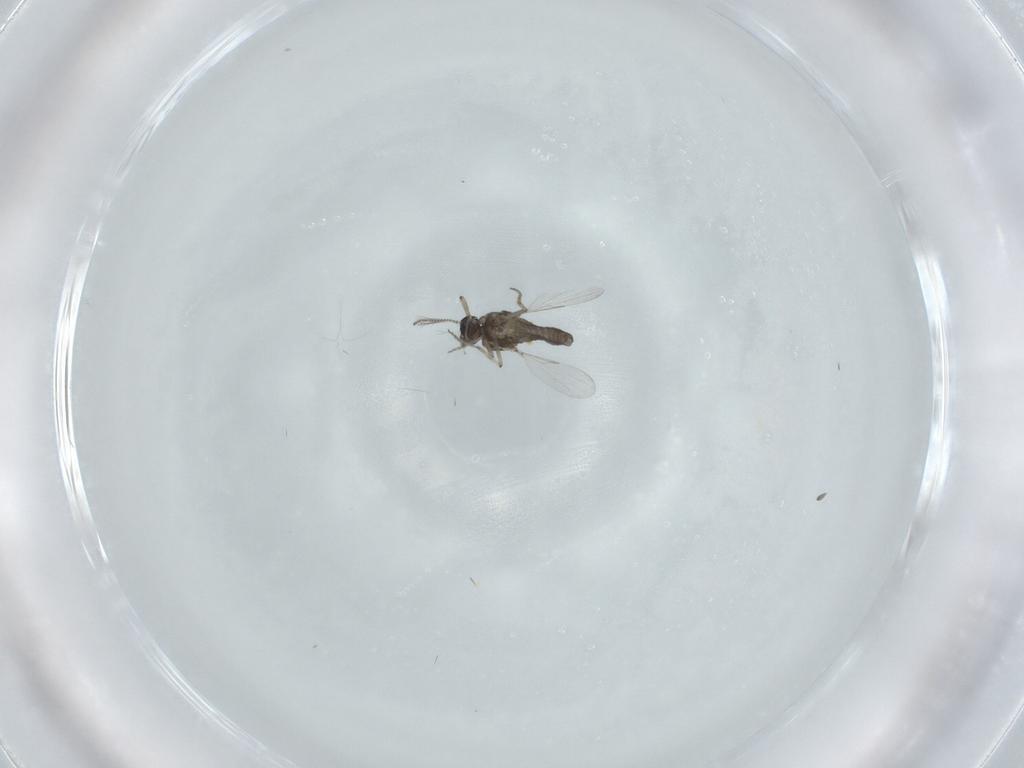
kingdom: Animalia
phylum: Arthropoda
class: Insecta
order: Diptera
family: Ceratopogonidae
